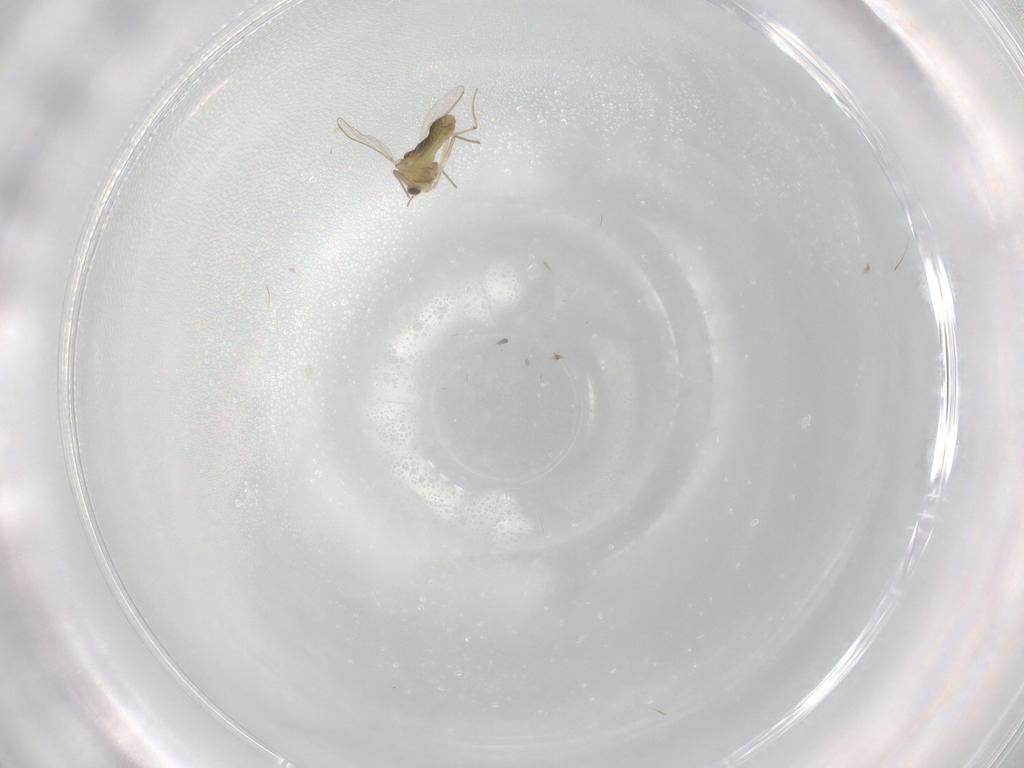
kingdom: Animalia
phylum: Arthropoda
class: Insecta
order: Diptera
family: Chironomidae
